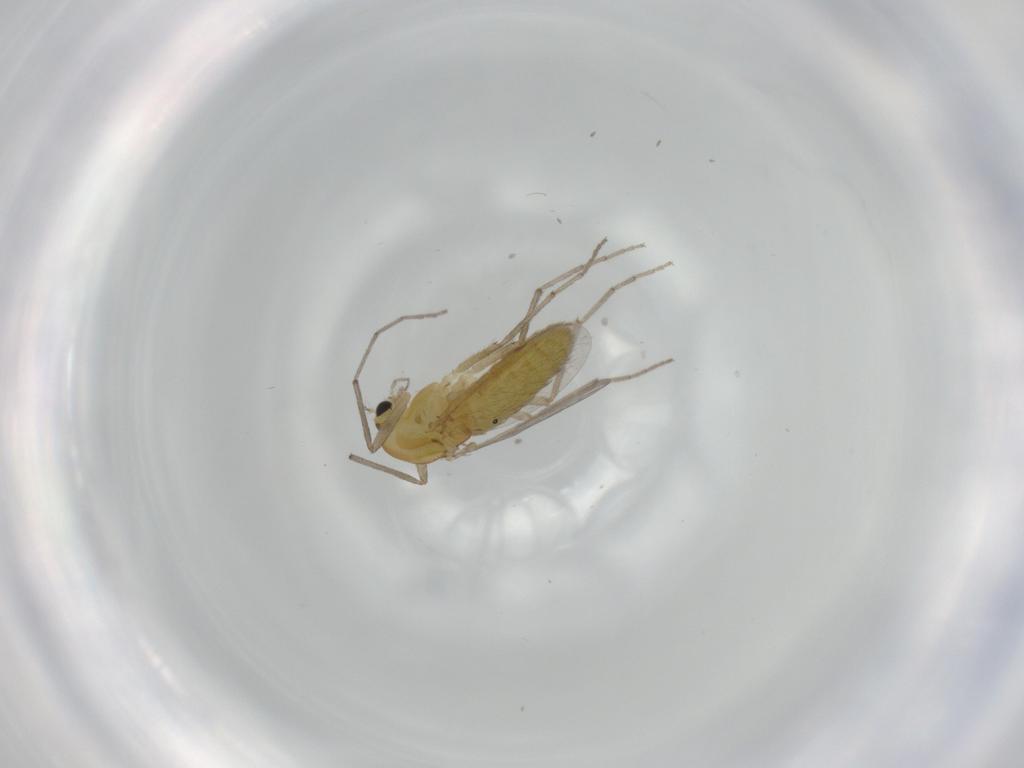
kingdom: Animalia
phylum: Arthropoda
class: Insecta
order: Diptera
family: Chironomidae
